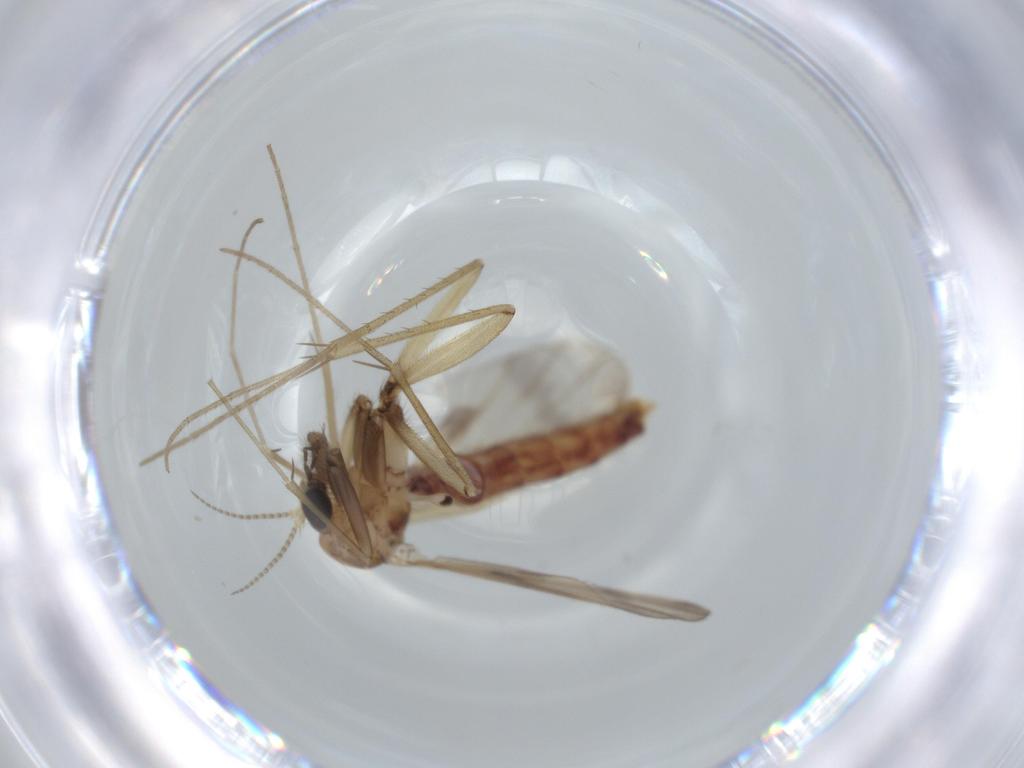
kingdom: Animalia
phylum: Arthropoda
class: Insecta
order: Diptera
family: Mycetophilidae
